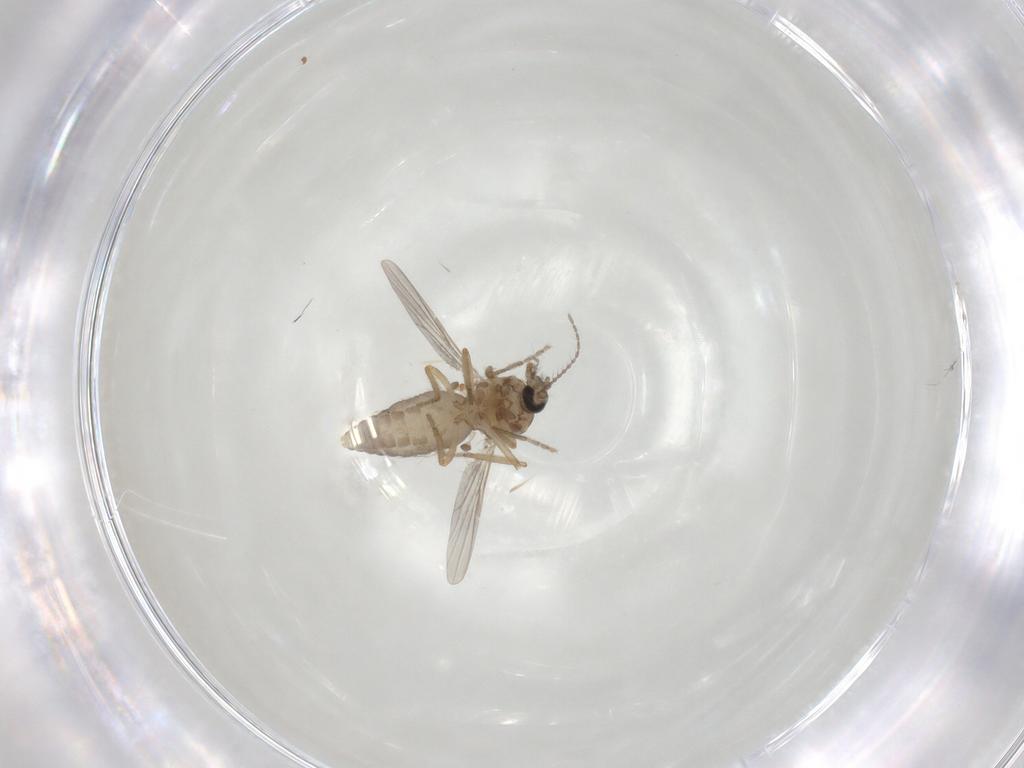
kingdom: Animalia
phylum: Arthropoda
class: Insecta
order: Diptera
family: Ceratopogonidae
